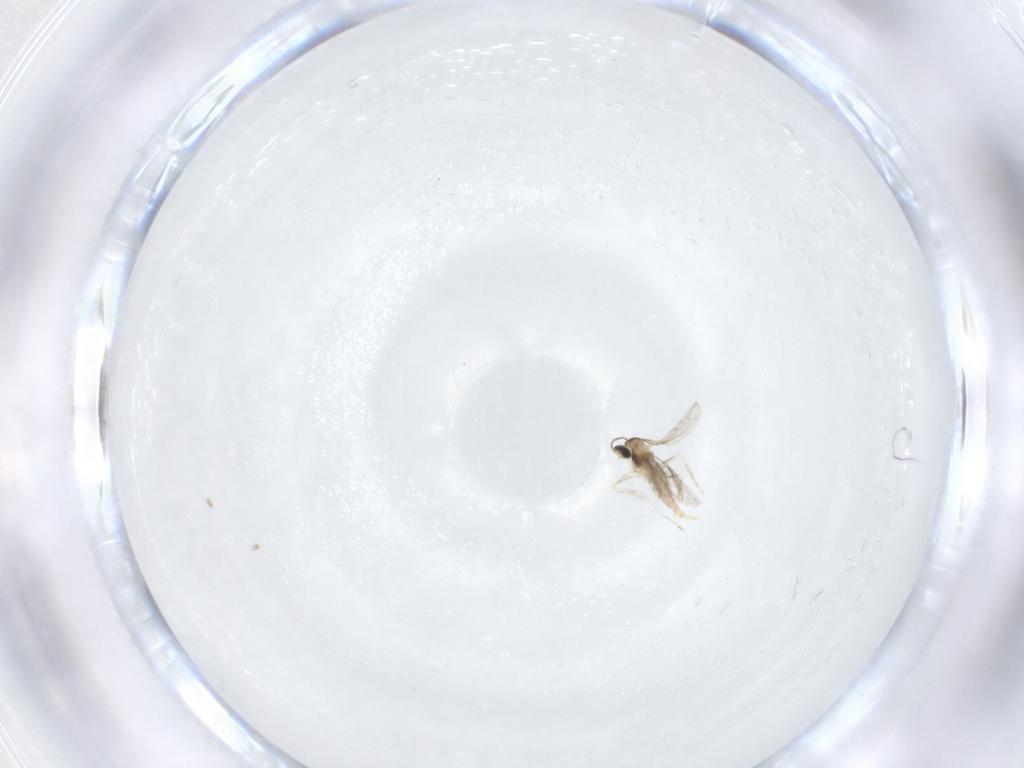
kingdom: Animalia
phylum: Arthropoda
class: Insecta
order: Diptera
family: Cecidomyiidae
